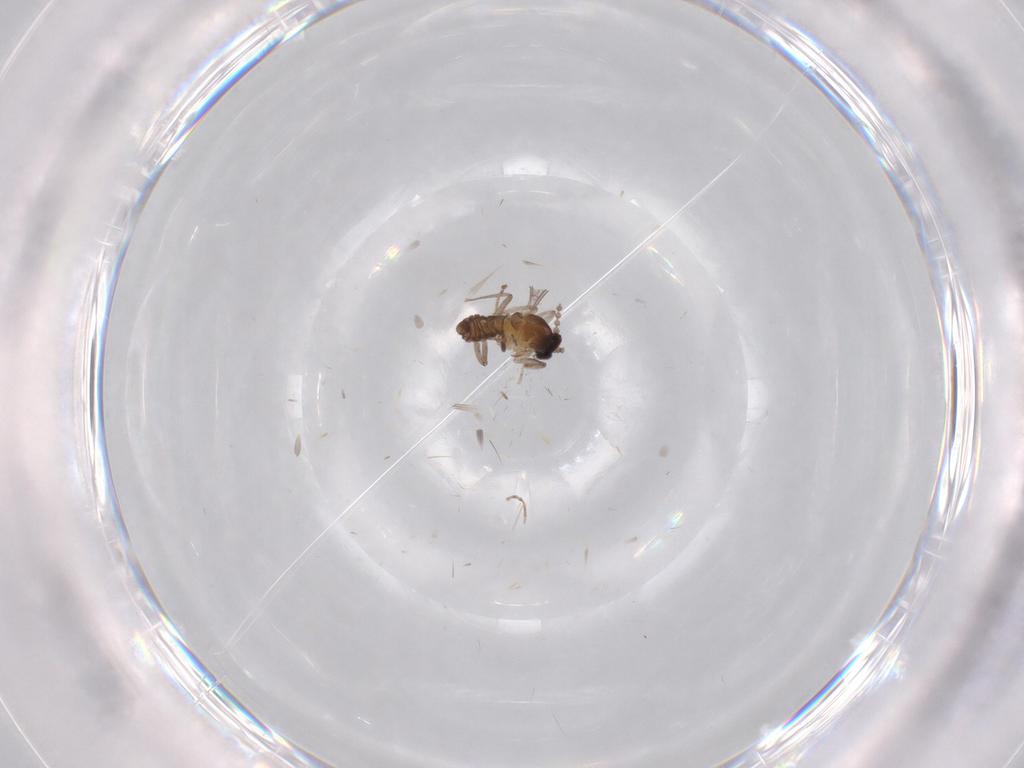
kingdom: Animalia
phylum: Arthropoda
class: Insecta
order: Diptera
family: Cecidomyiidae
